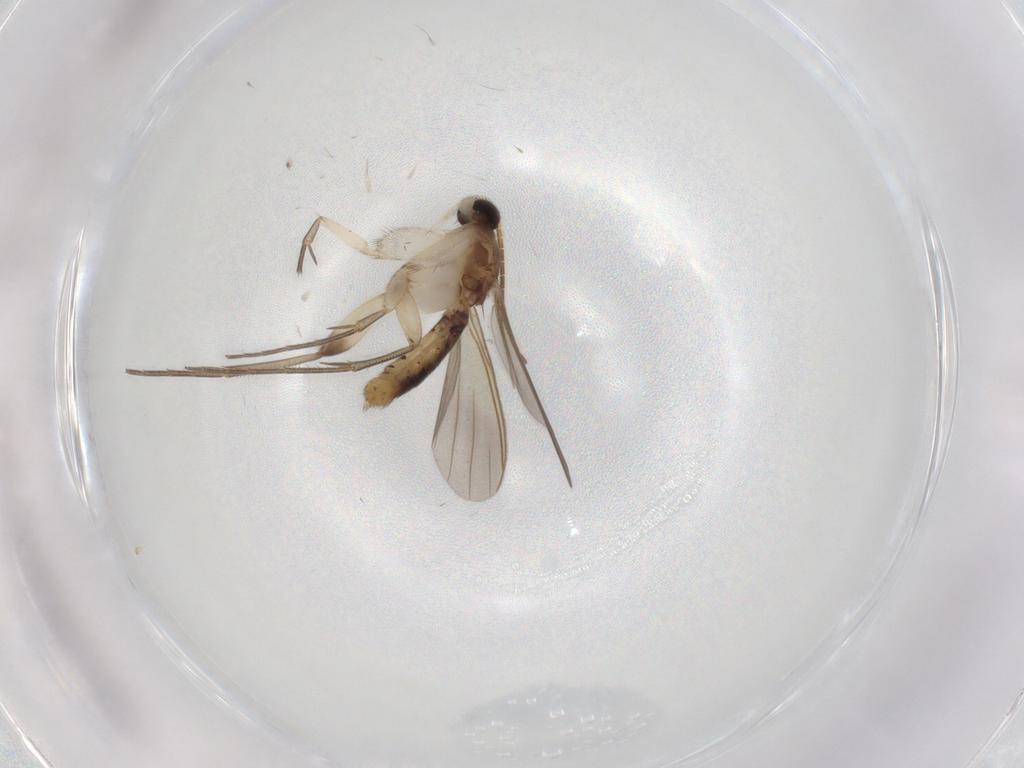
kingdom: Animalia
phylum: Arthropoda
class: Insecta
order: Diptera
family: Mycetophilidae
